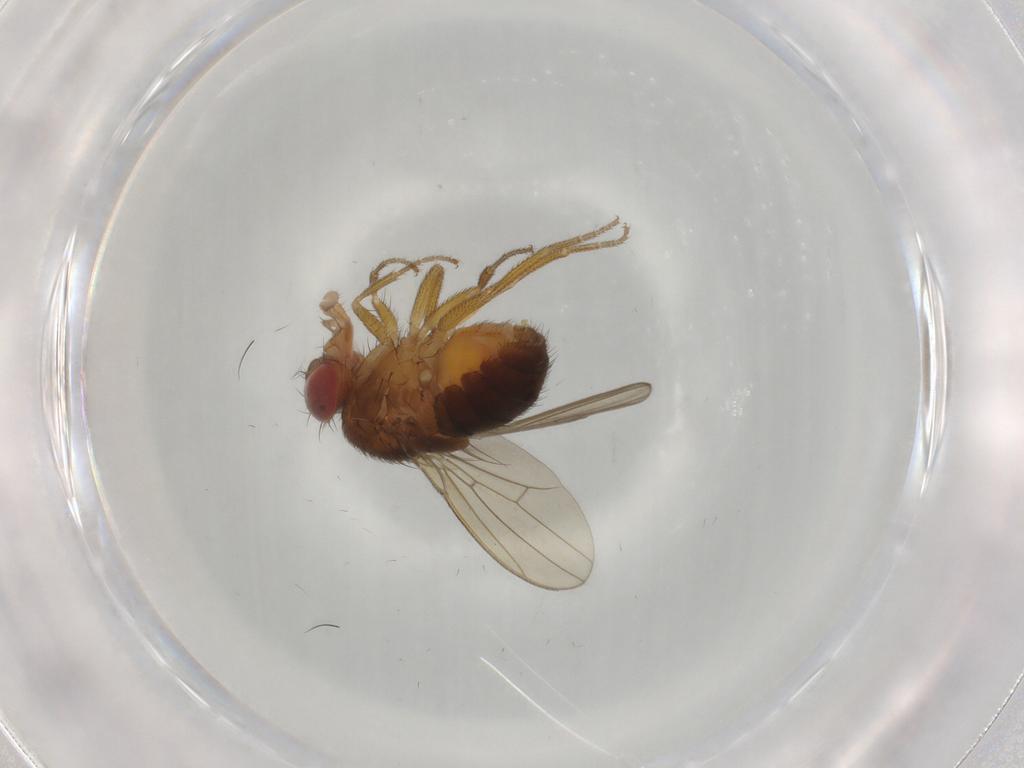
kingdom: Animalia
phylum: Arthropoda
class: Insecta
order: Diptera
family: Drosophilidae
